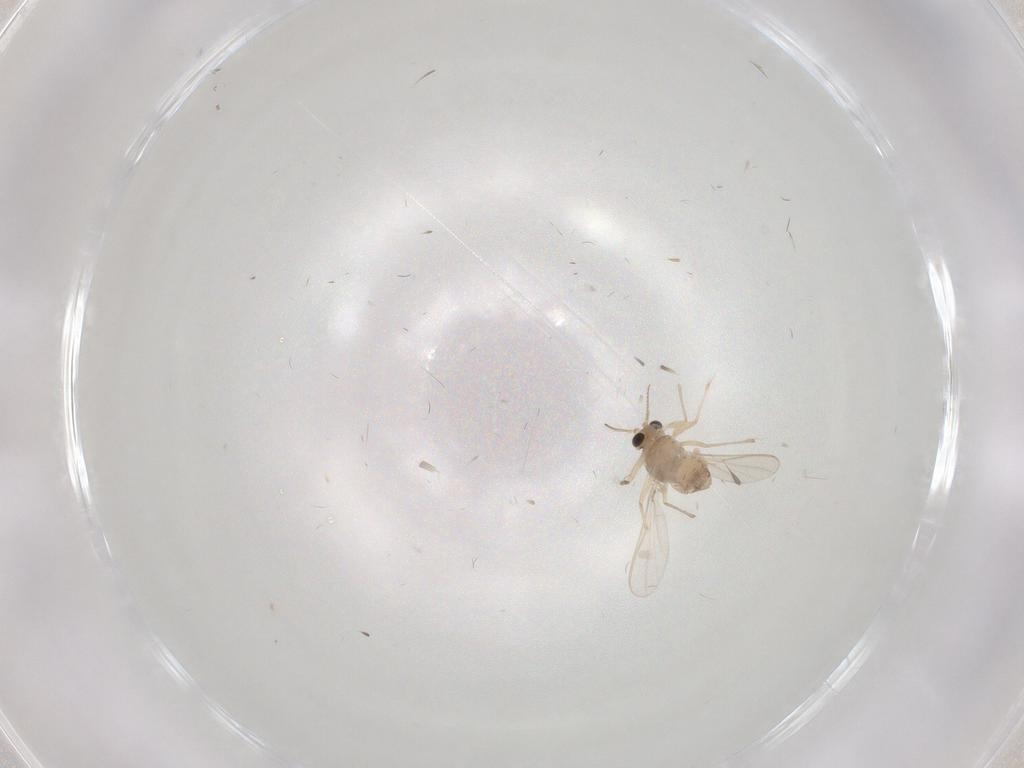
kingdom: Animalia
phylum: Arthropoda
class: Insecta
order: Diptera
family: Chironomidae
